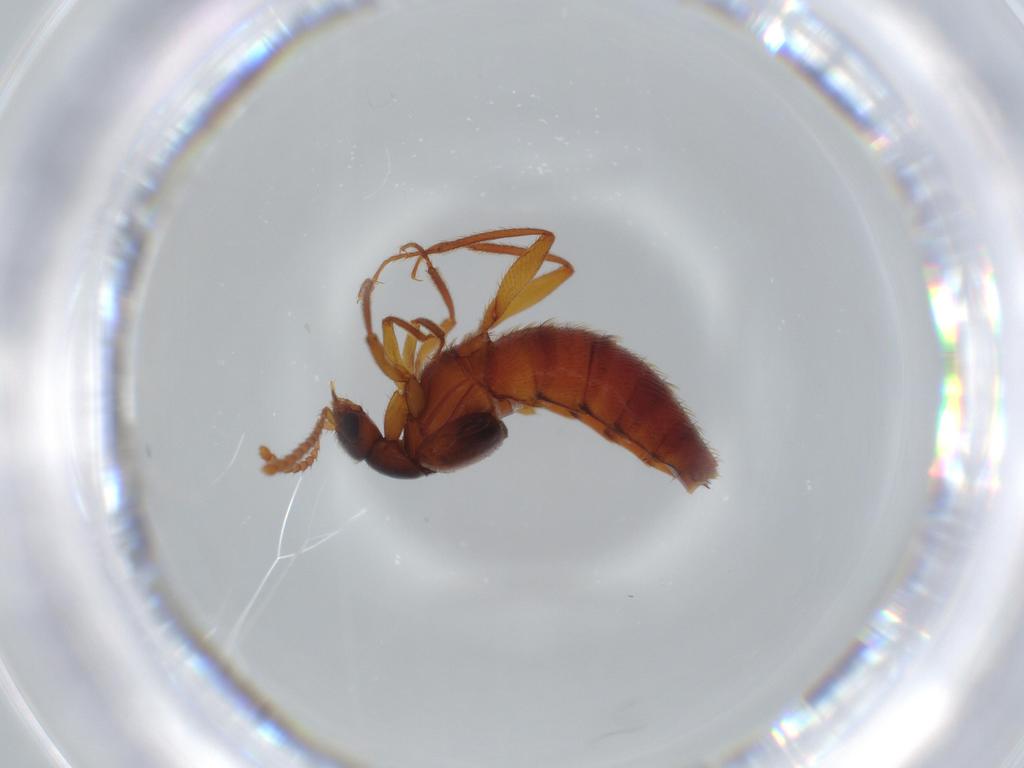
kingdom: Animalia
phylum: Arthropoda
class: Insecta
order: Coleoptera
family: Staphylinidae
